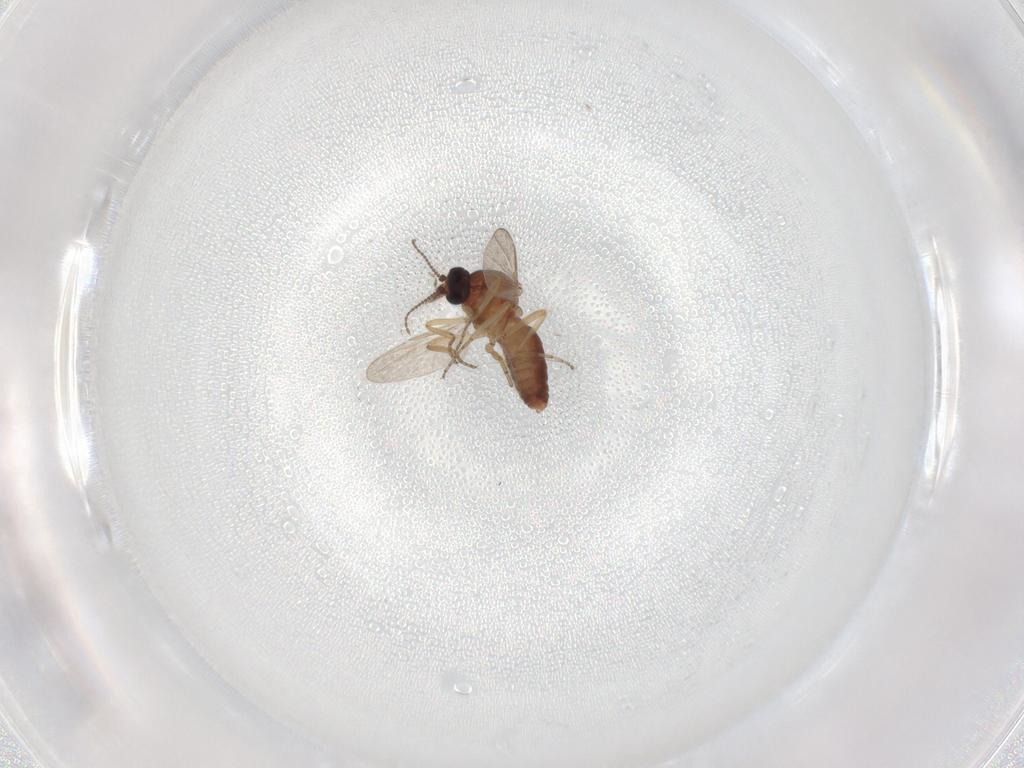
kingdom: Animalia
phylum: Arthropoda
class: Insecta
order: Diptera
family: Ceratopogonidae
